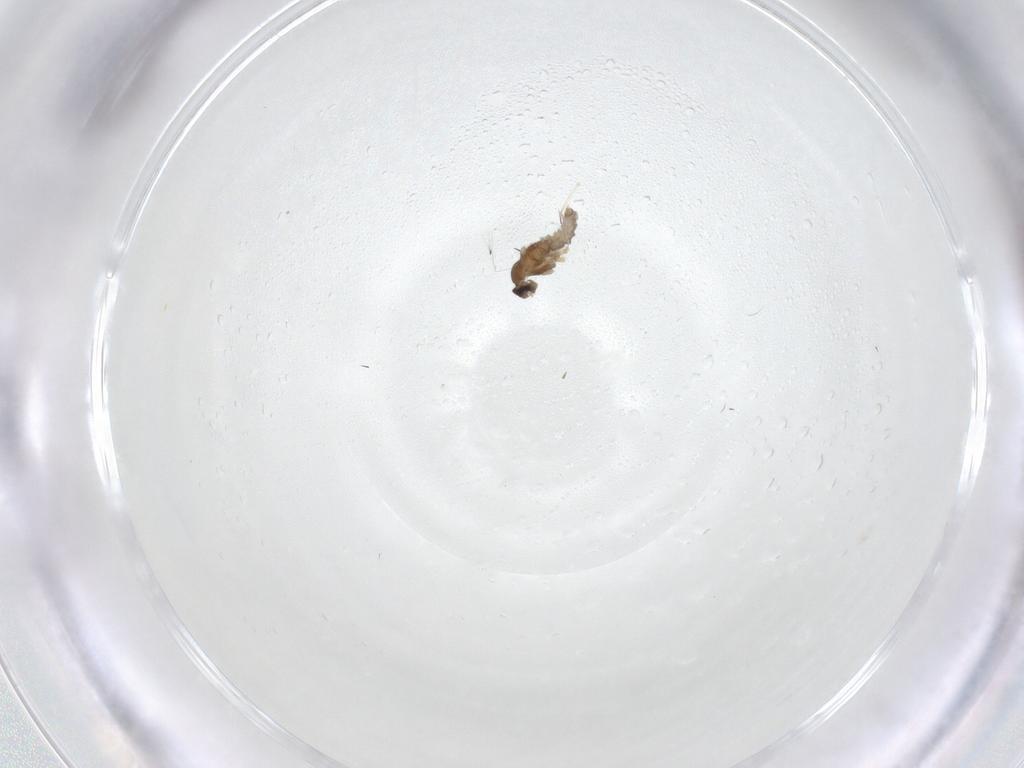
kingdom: Animalia
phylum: Arthropoda
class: Insecta
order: Diptera
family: Cecidomyiidae
